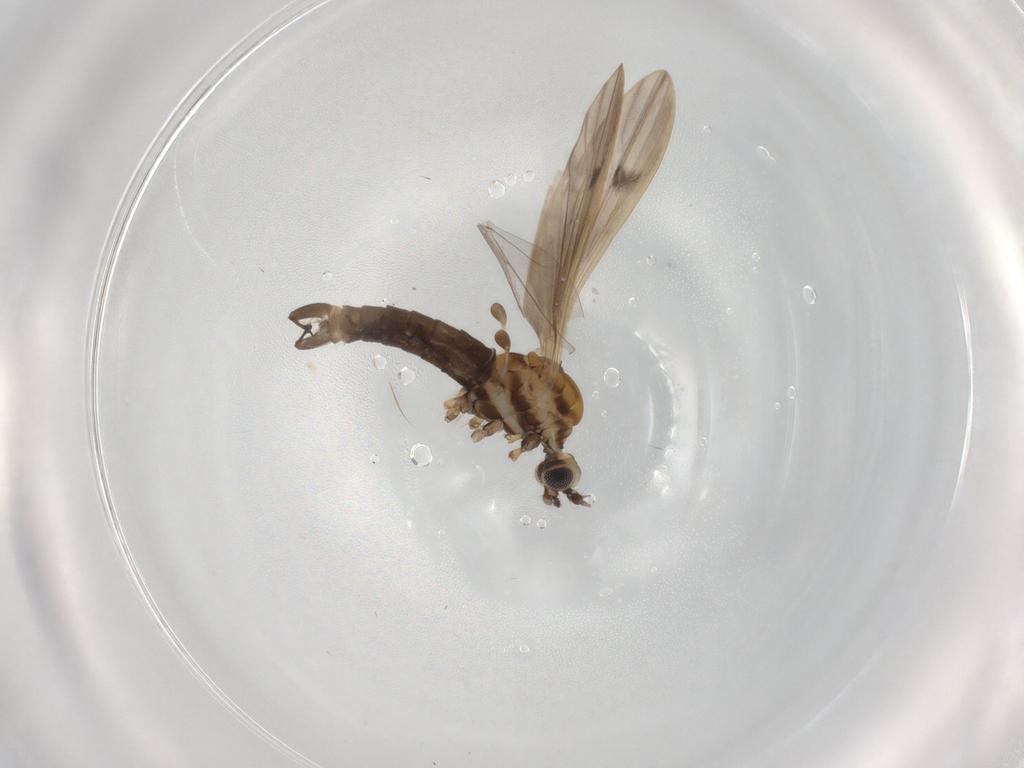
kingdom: Animalia
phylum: Arthropoda
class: Insecta
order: Diptera
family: Limoniidae
